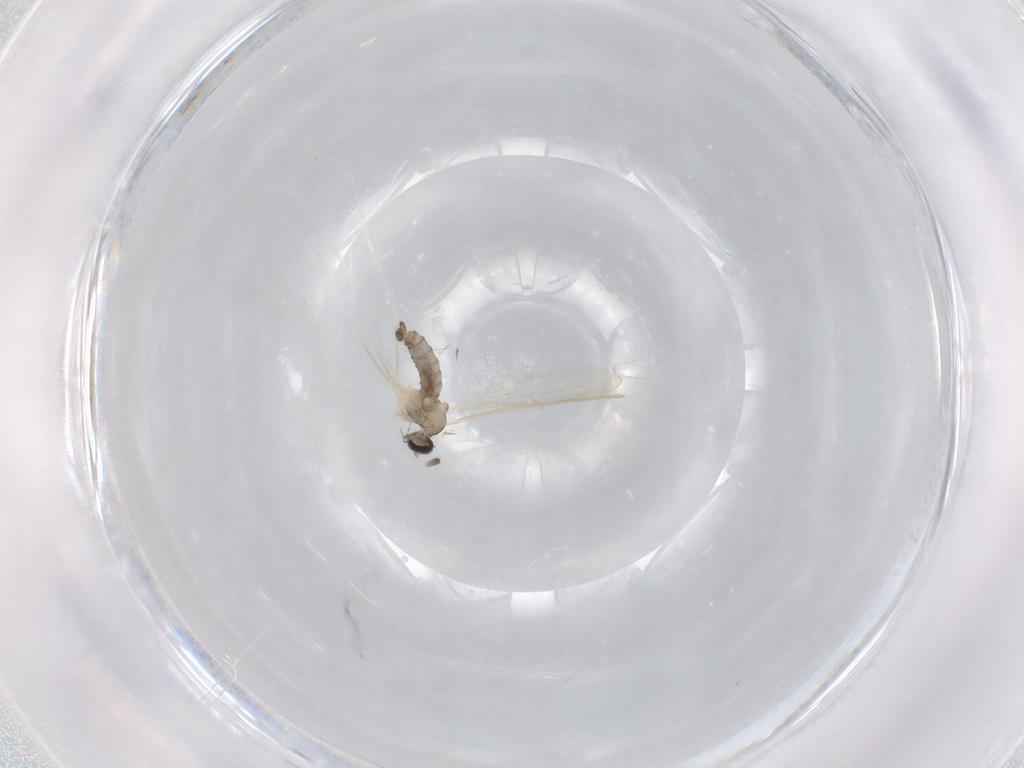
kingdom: Animalia
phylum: Arthropoda
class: Insecta
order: Diptera
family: Cecidomyiidae
